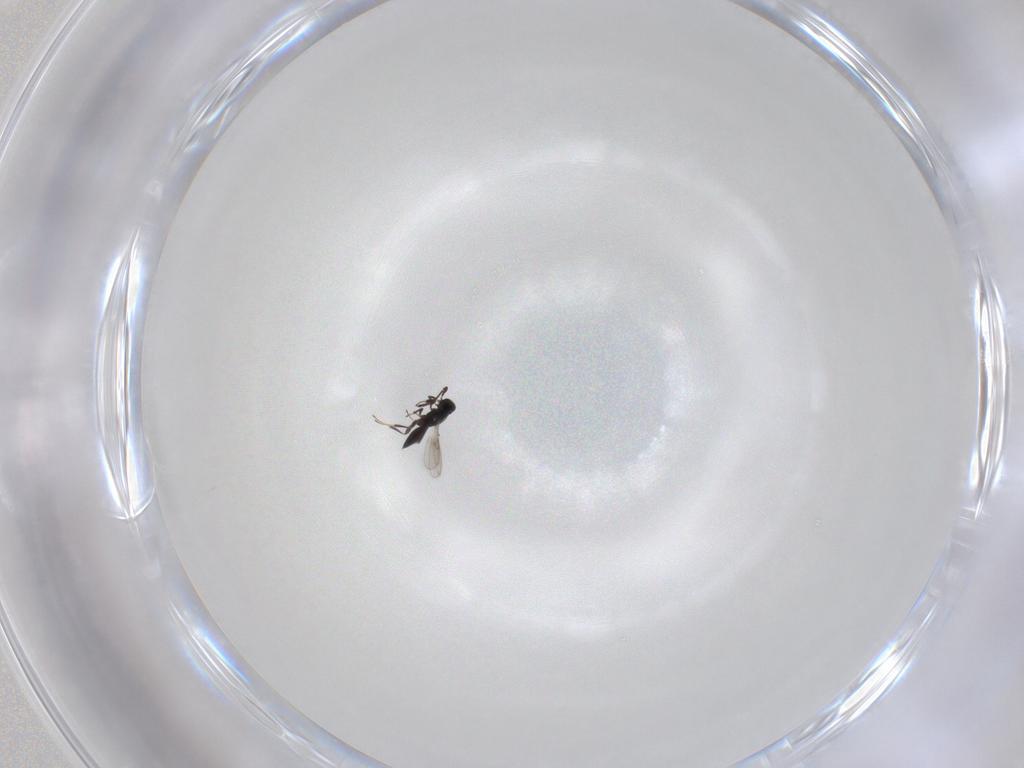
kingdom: Animalia
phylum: Arthropoda
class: Insecta
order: Hymenoptera
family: Scelionidae
